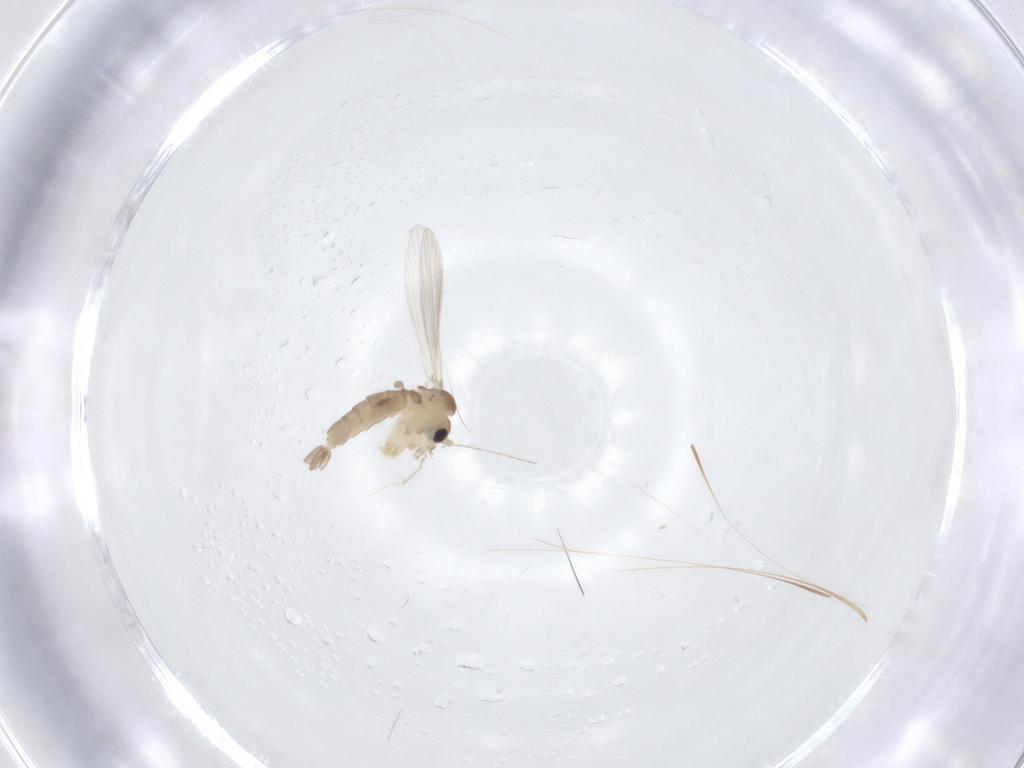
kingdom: Animalia
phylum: Arthropoda
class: Insecta
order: Diptera
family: Psychodidae
